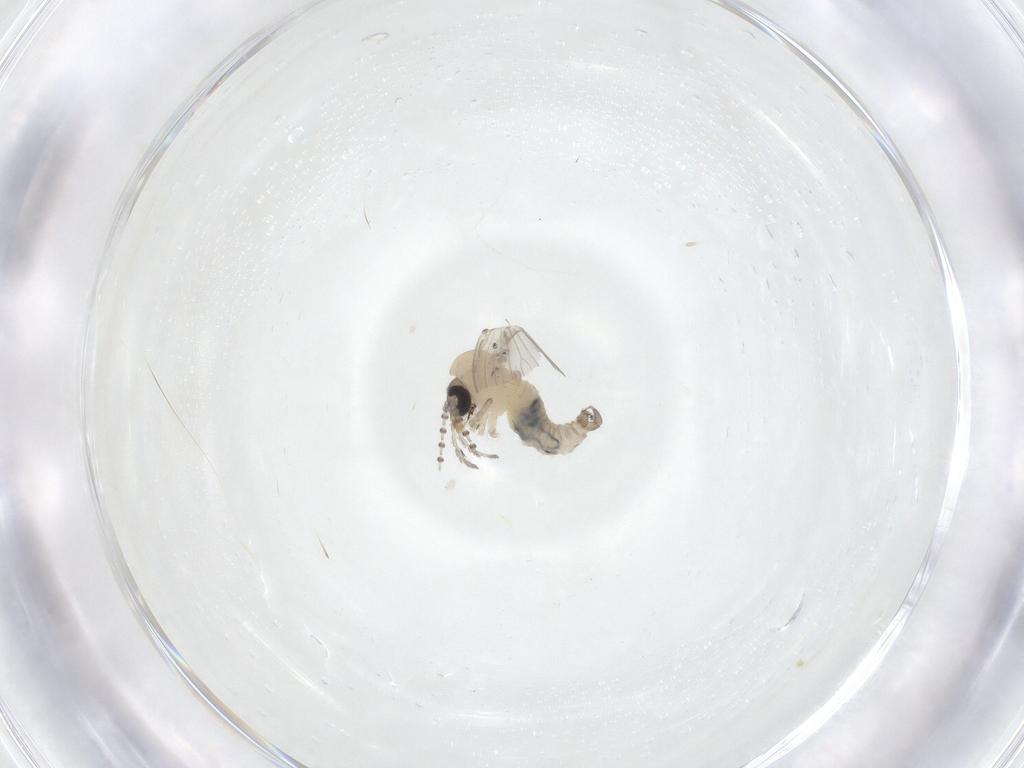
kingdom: Animalia
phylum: Arthropoda
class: Insecta
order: Diptera
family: Psychodidae
